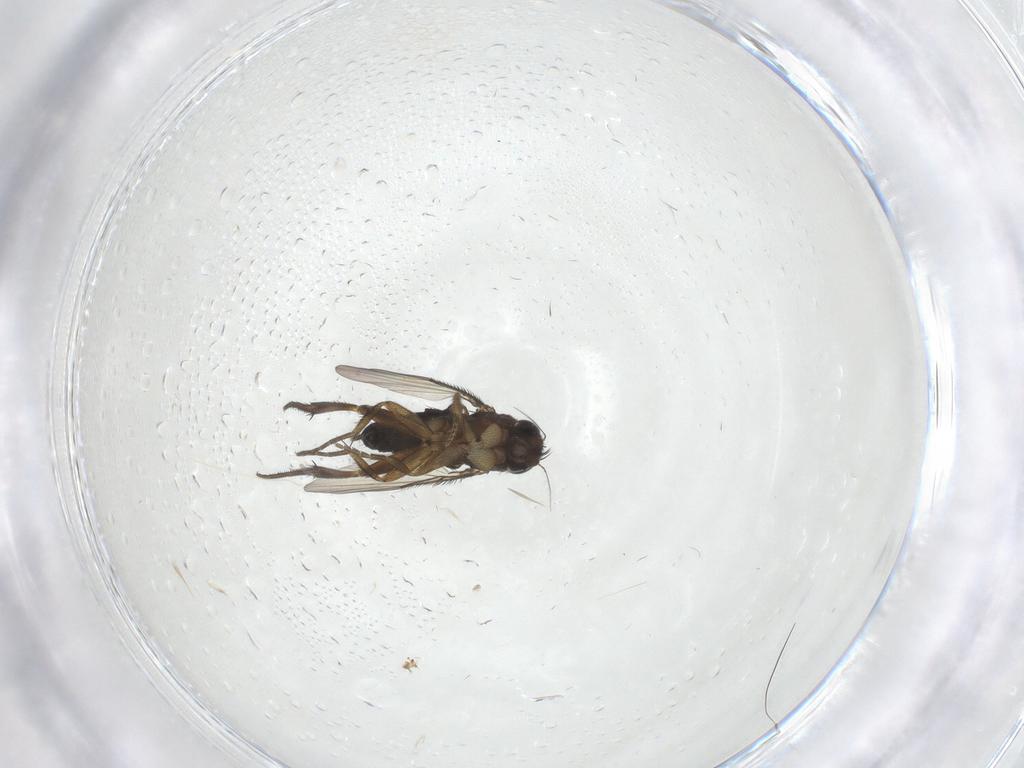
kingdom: Animalia
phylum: Arthropoda
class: Insecta
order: Diptera
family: Phoridae
